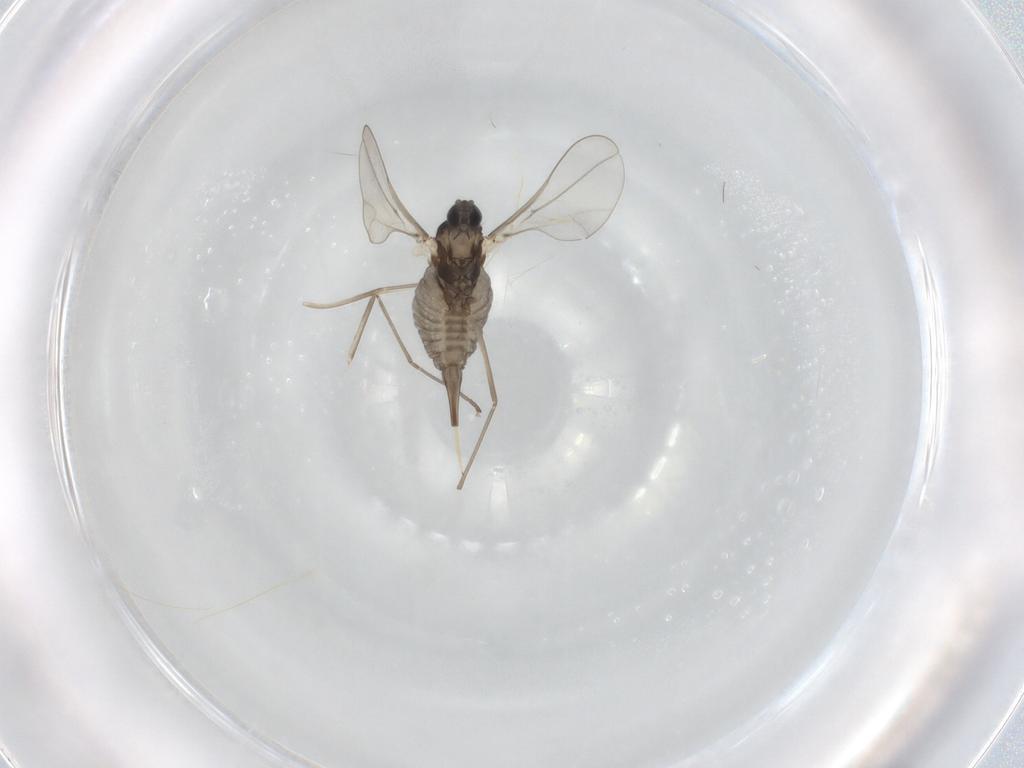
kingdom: Animalia
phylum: Arthropoda
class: Insecta
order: Diptera
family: Cecidomyiidae
